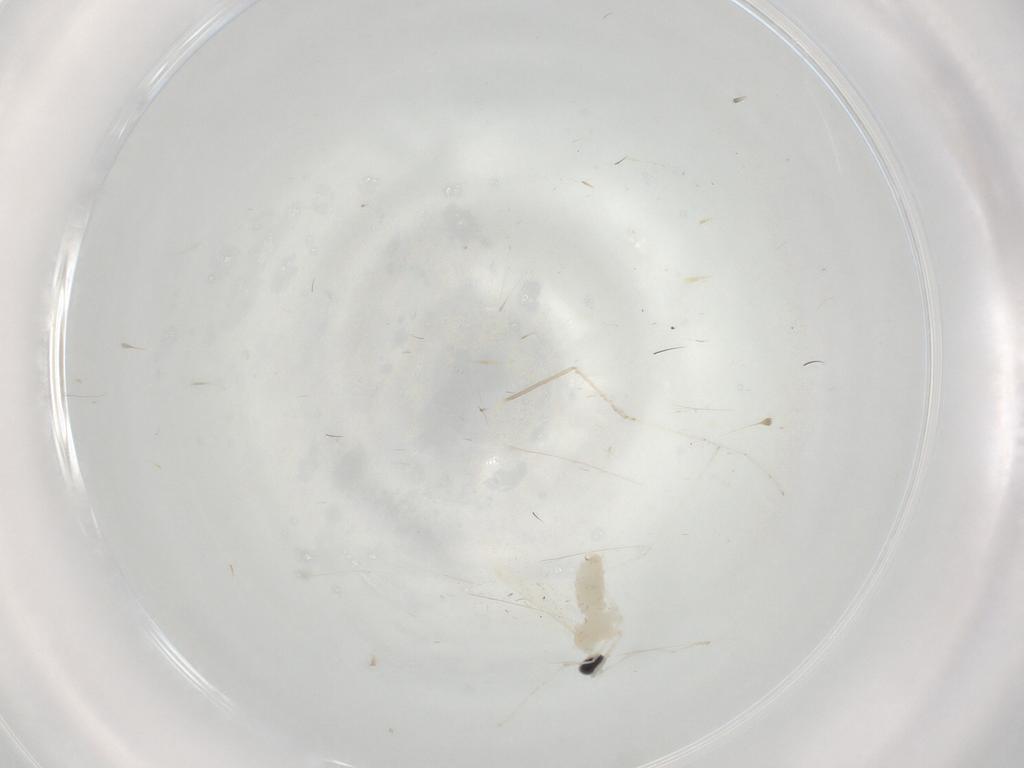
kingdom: Animalia
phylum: Arthropoda
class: Insecta
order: Diptera
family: Cecidomyiidae
